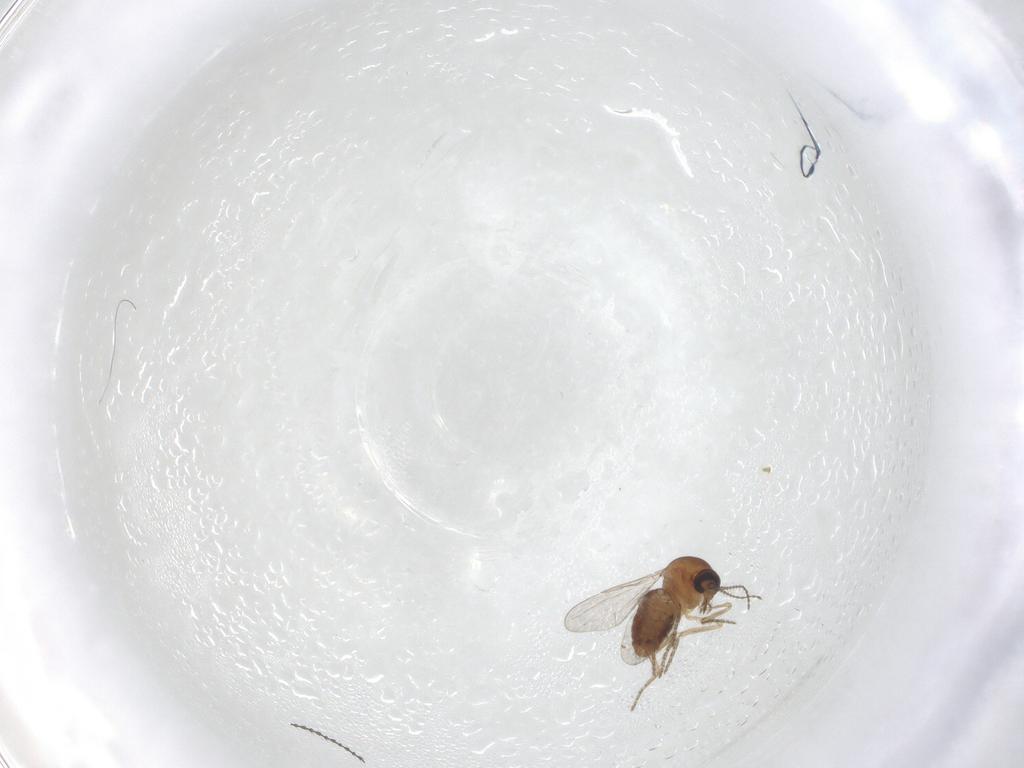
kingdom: Animalia
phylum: Arthropoda
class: Insecta
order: Diptera
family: Ceratopogonidae
